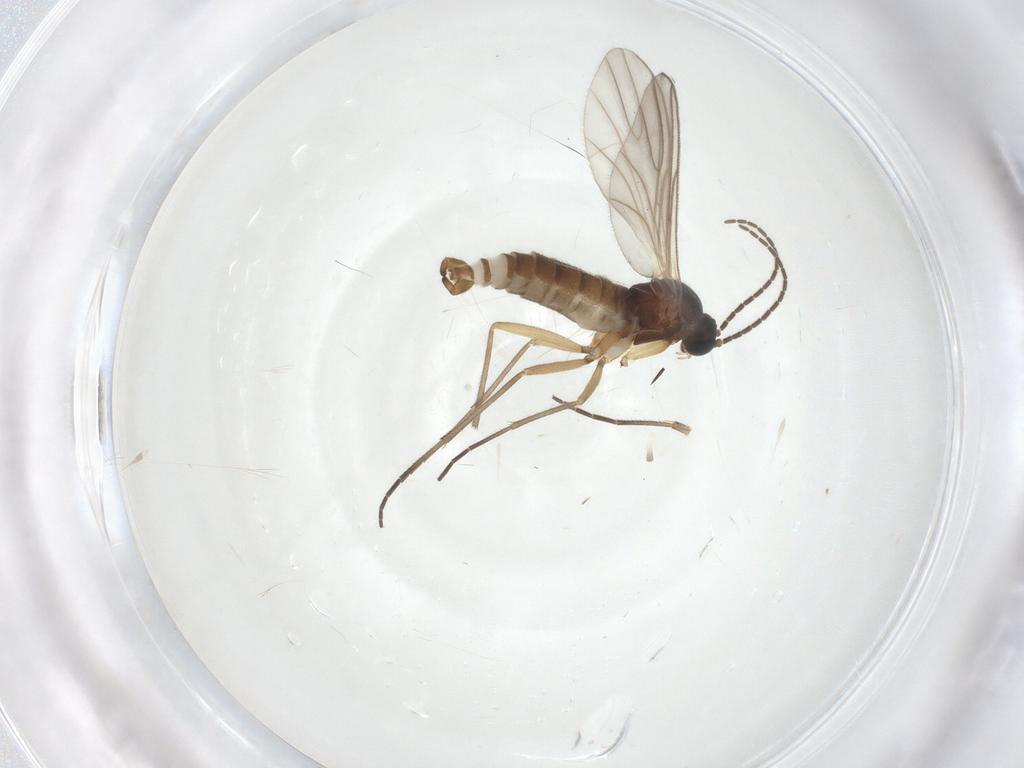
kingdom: Animalia
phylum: Arthropoda
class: Insecta
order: Diptera
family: Sciaridae
